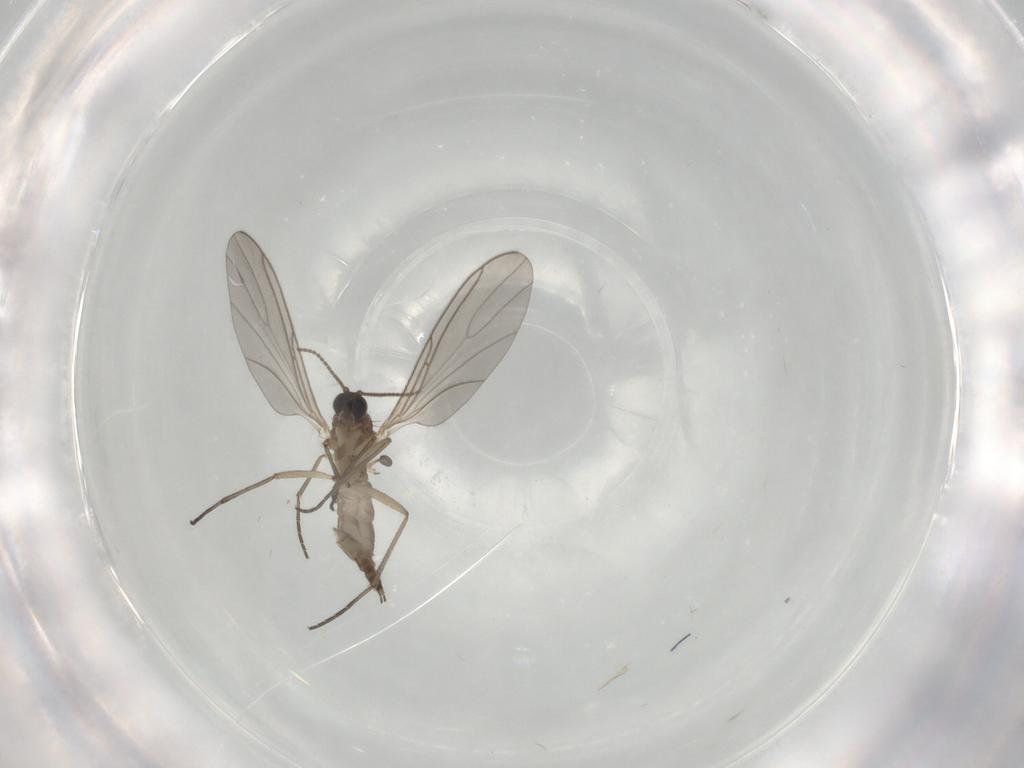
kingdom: Animalia
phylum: Arthropoda
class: Insecta
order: Diptera
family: Sciaridae
